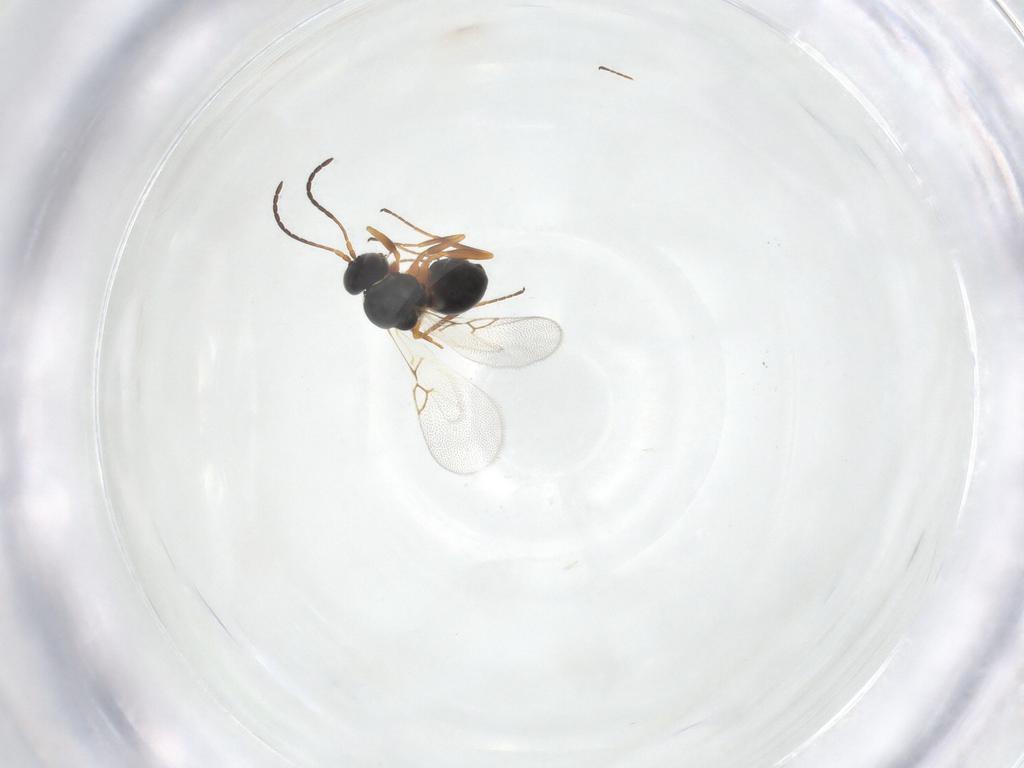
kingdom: Animalia
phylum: Arthropoda
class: Insecta
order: Hymenoptera
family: Figitidae
